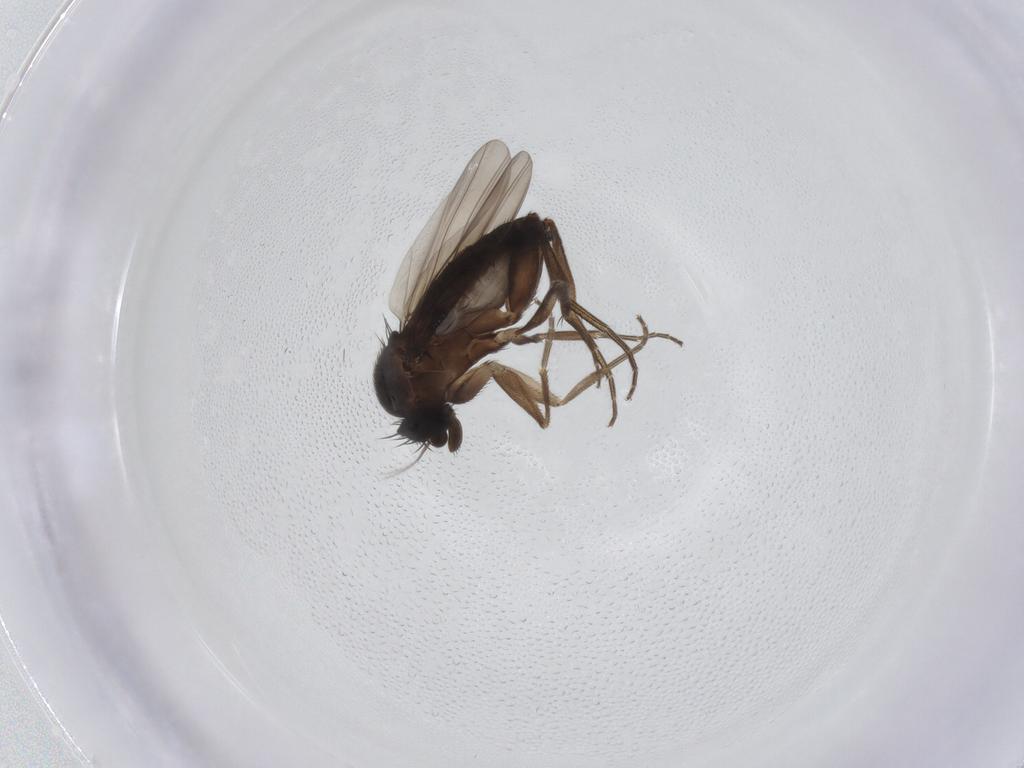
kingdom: Animalia
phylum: Arthropoda
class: Insecta
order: Diptera
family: Phoridae
